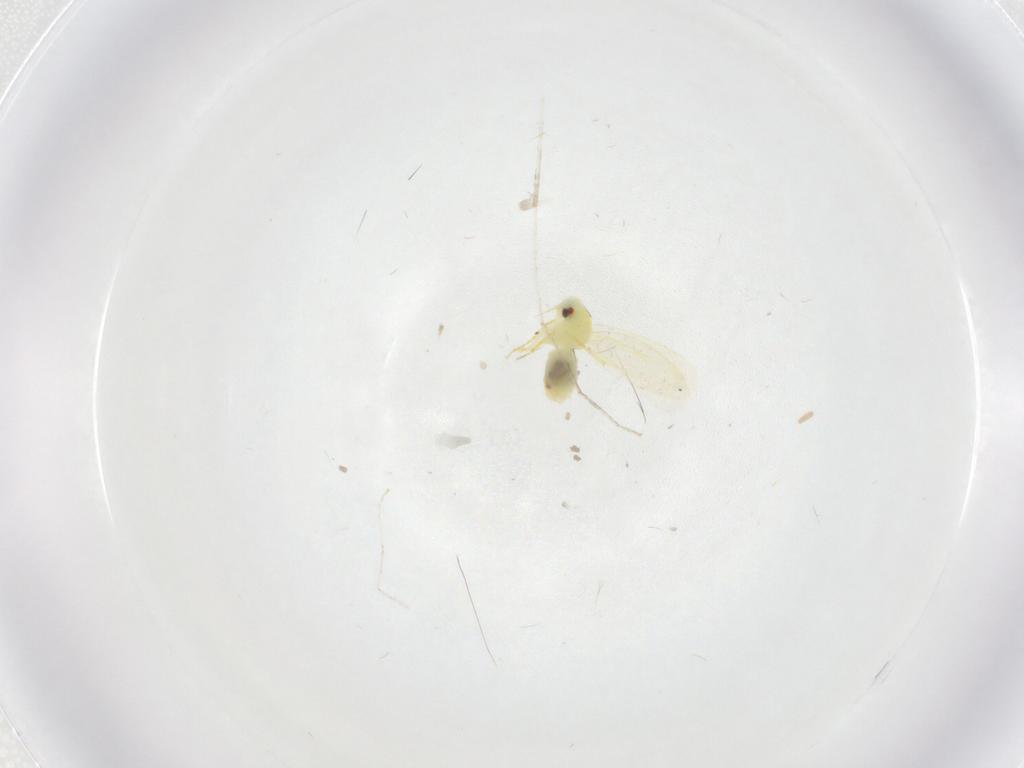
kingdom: Animalia
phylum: Arthropoda
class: Insecta
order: Hemiptera
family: Aleyrodidae
